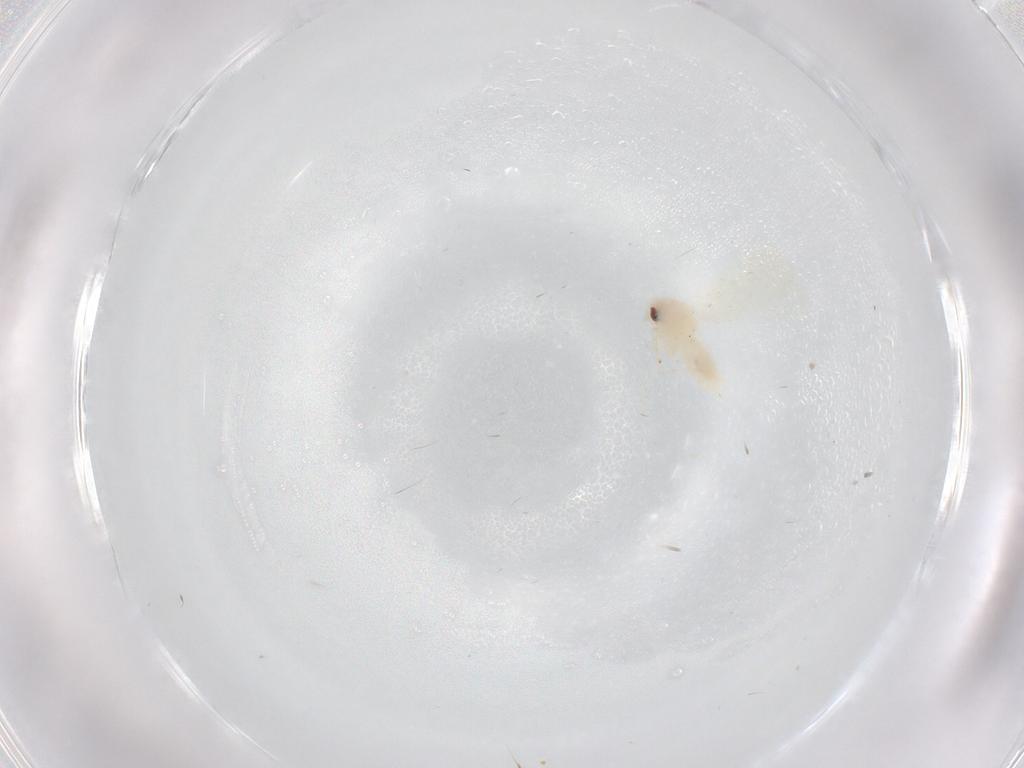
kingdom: Animalia
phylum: Arthropoda
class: Insecta
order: Hemiptera
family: Aleyrodidae
